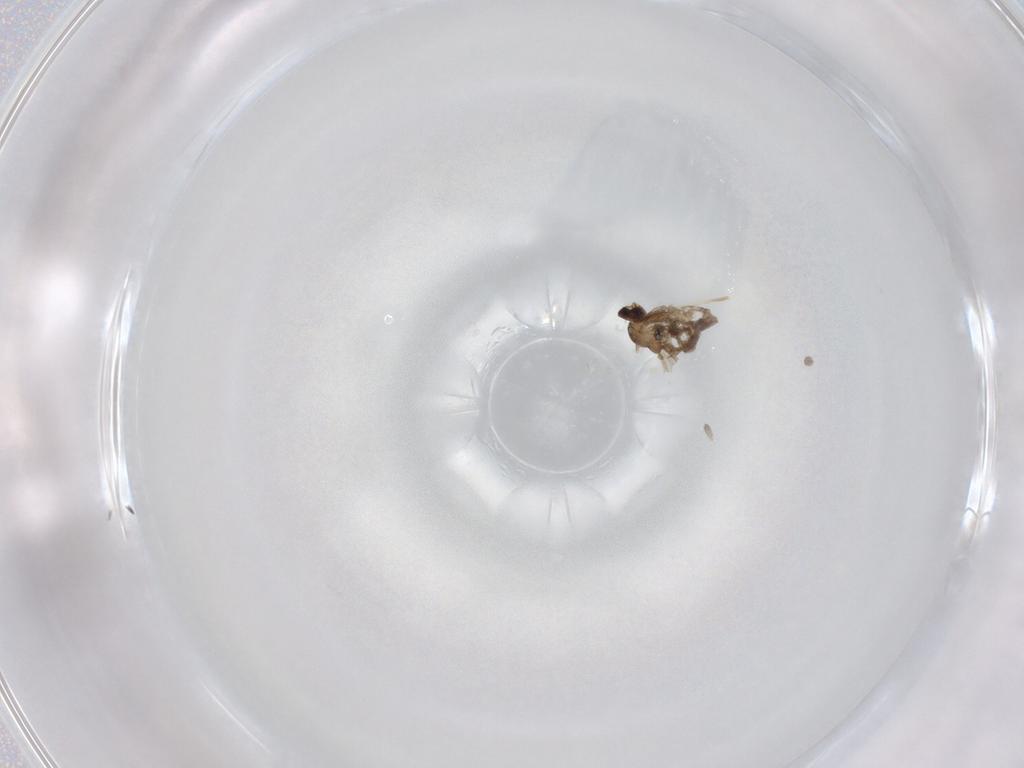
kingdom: Animalia
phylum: Arthropoda
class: Insecta
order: Diptera
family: Cecidomyiidae
